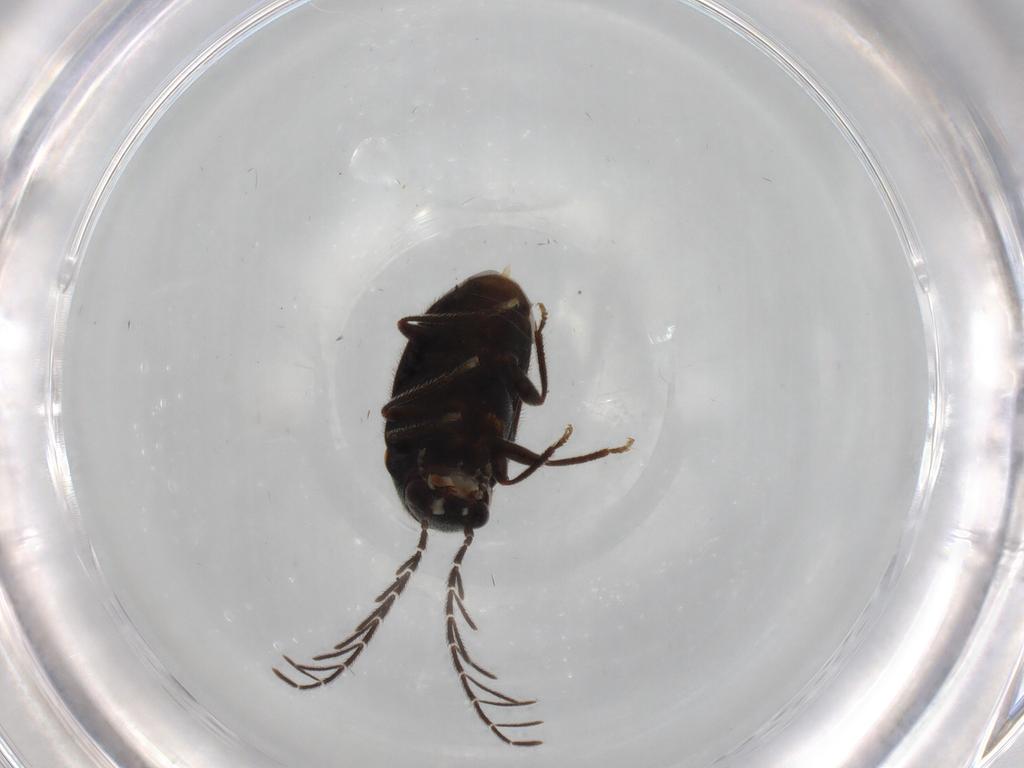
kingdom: Animalia
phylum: Arthropoda
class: Insecta
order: Coleoptera
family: Ptilodactylidae
